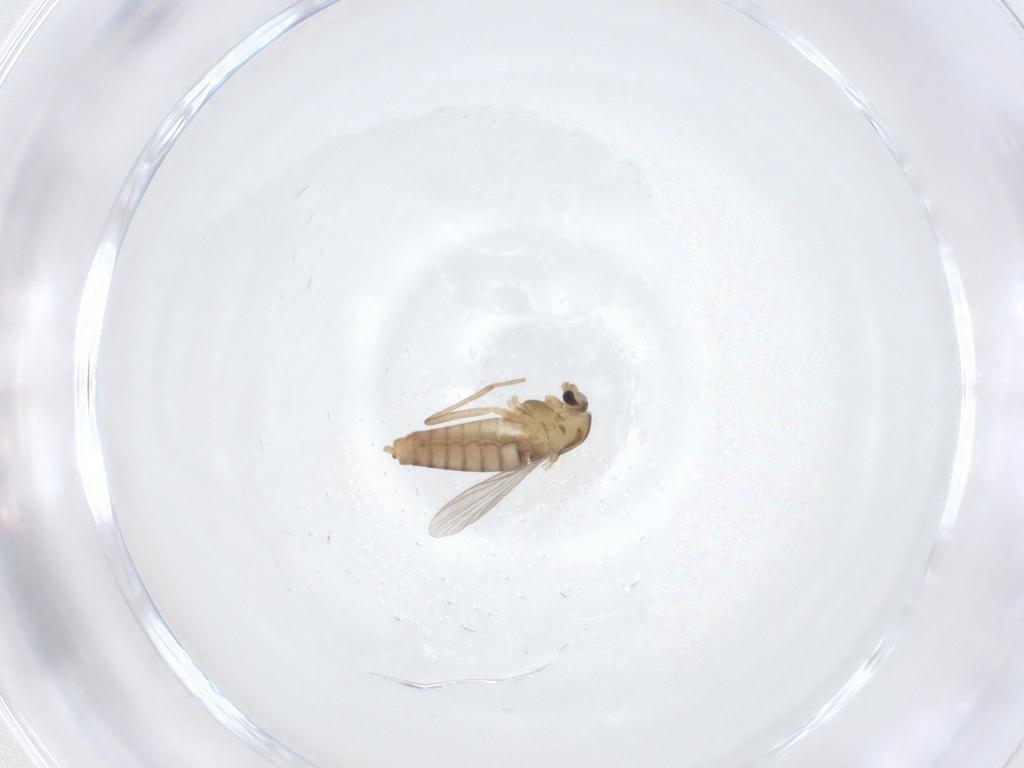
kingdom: Animalia
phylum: Arthropoda
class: Insecta
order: Diptera
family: Chironomidae
